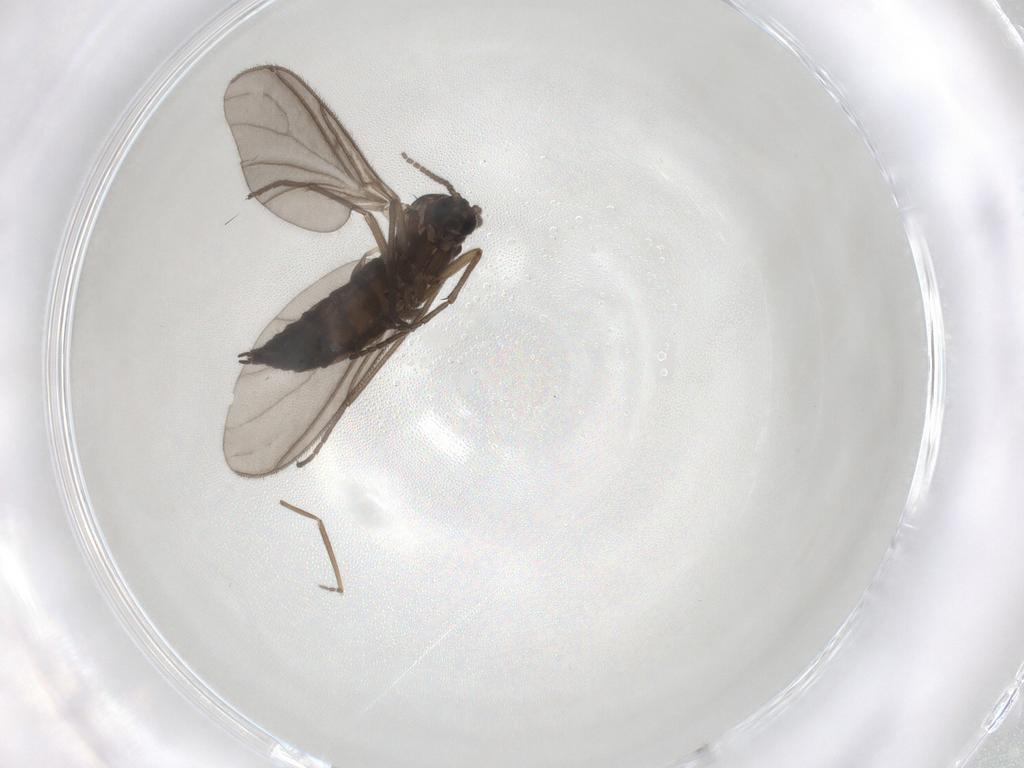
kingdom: Animalia
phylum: Arthropoda
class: Insecta
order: Diptera
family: Sciaridae
